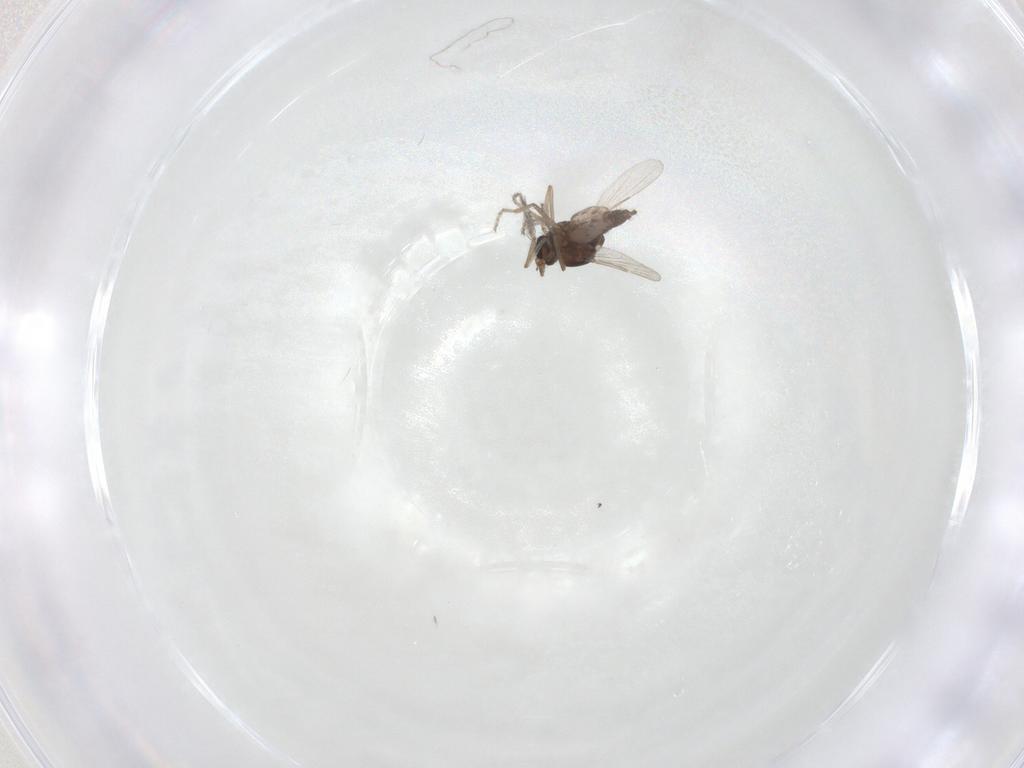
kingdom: Animalia
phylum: Arthropoda
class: Insecta
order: Diptera
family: Ceratopogonidae
